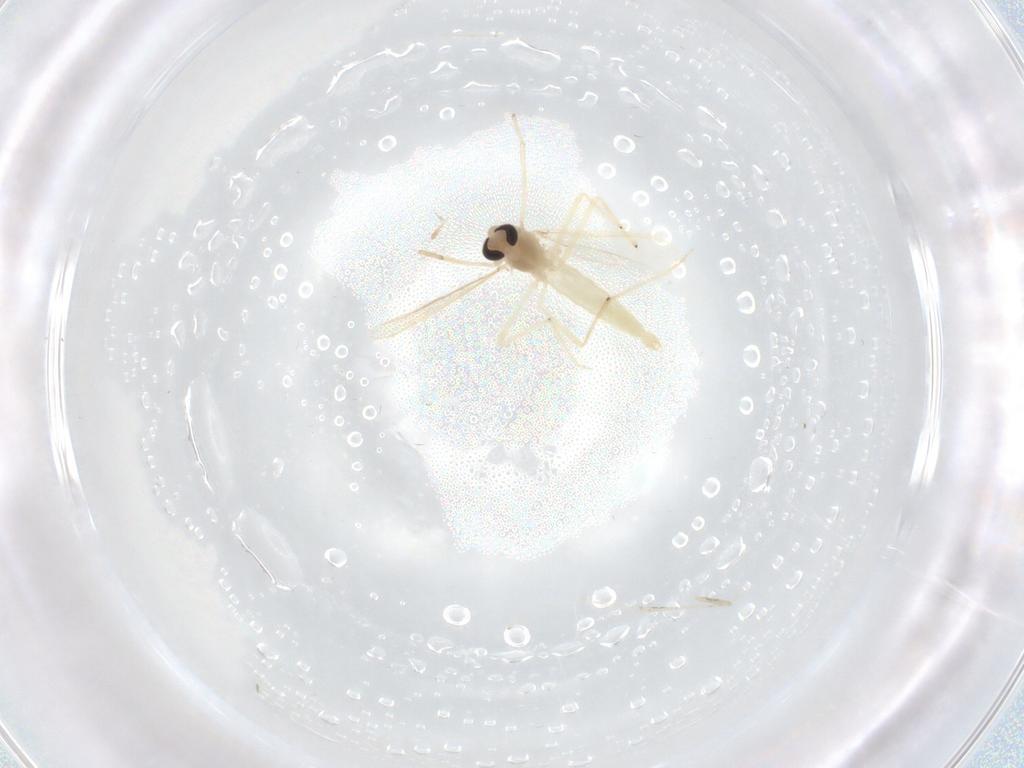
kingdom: Animalia
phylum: Arthropoda
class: Insecta
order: Diptera
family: Chironomidae
